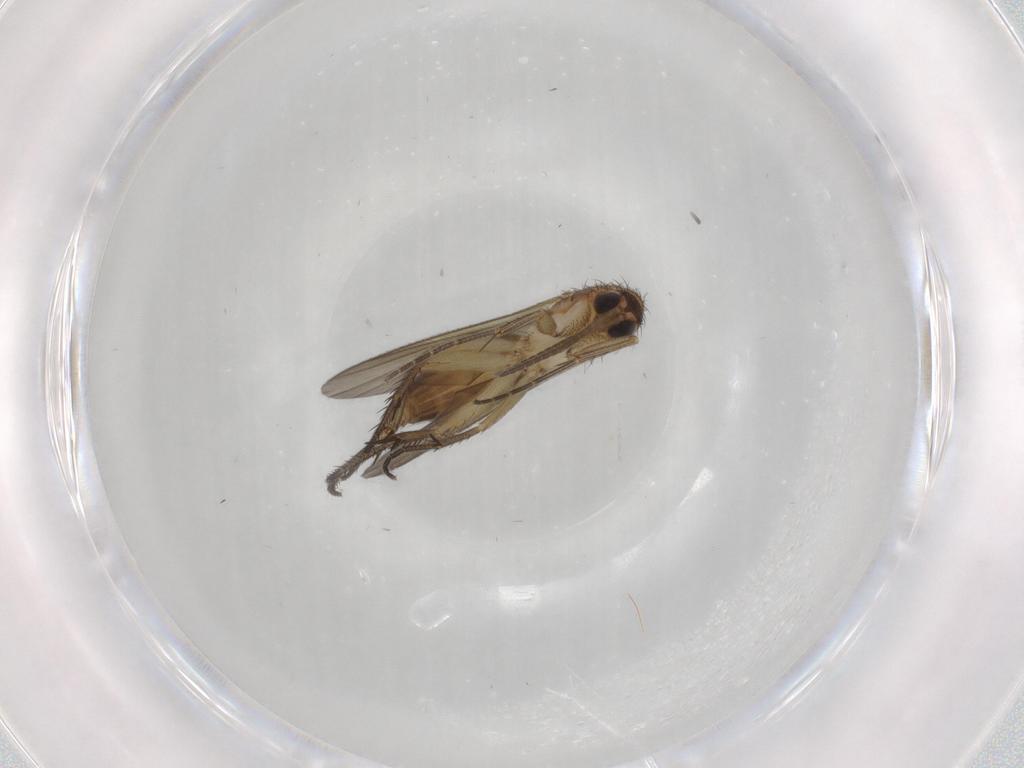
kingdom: Animalia
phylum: Arthropoda
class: Insecta
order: Diptera
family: Mycetophilidae
